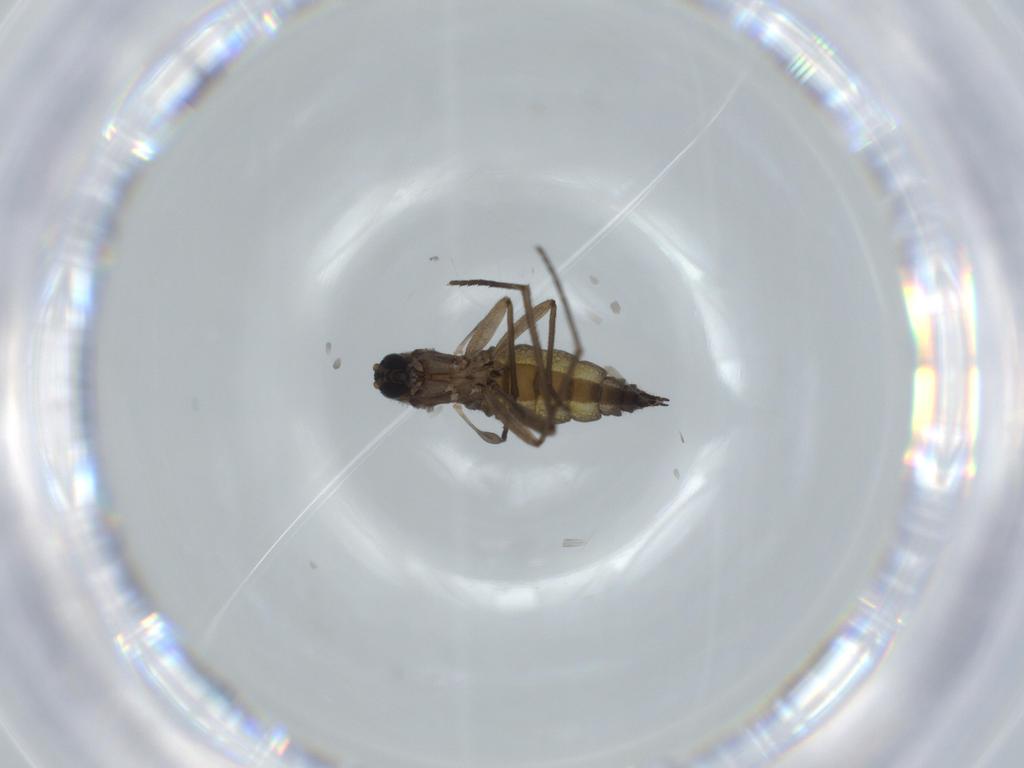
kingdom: Animalia
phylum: Arthropoda
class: Insecta
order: Diptera
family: Sciaridae
